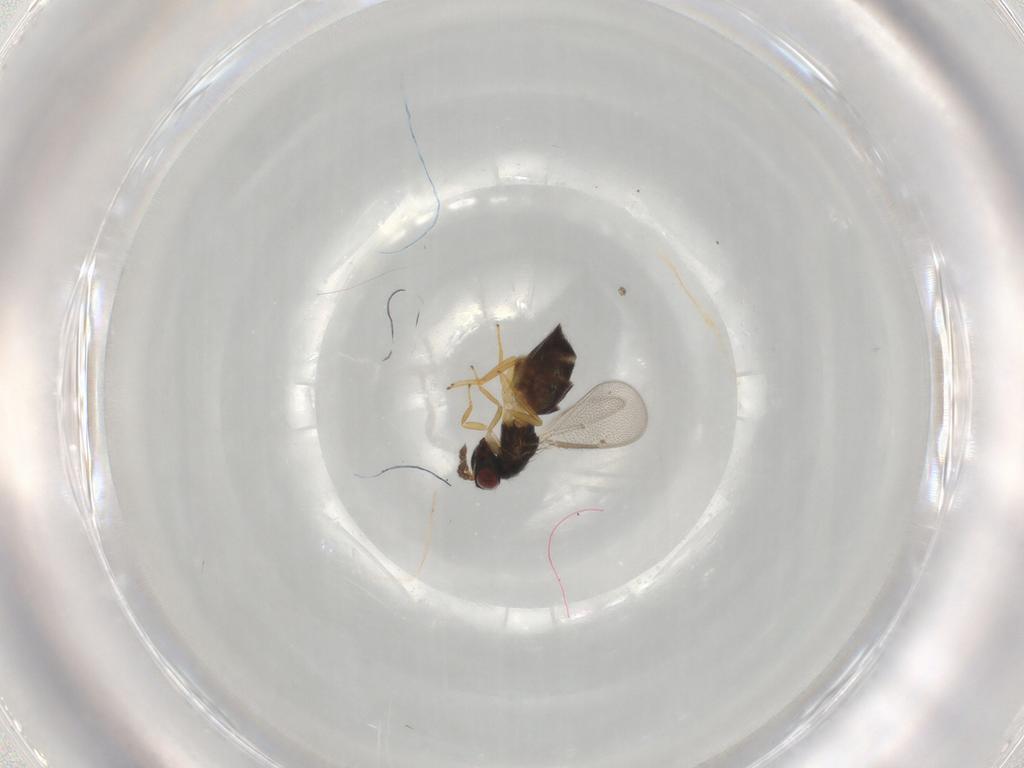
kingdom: Animalia
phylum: Arthropoda
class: Insecta
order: Hymenoptera
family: Eulophidae
